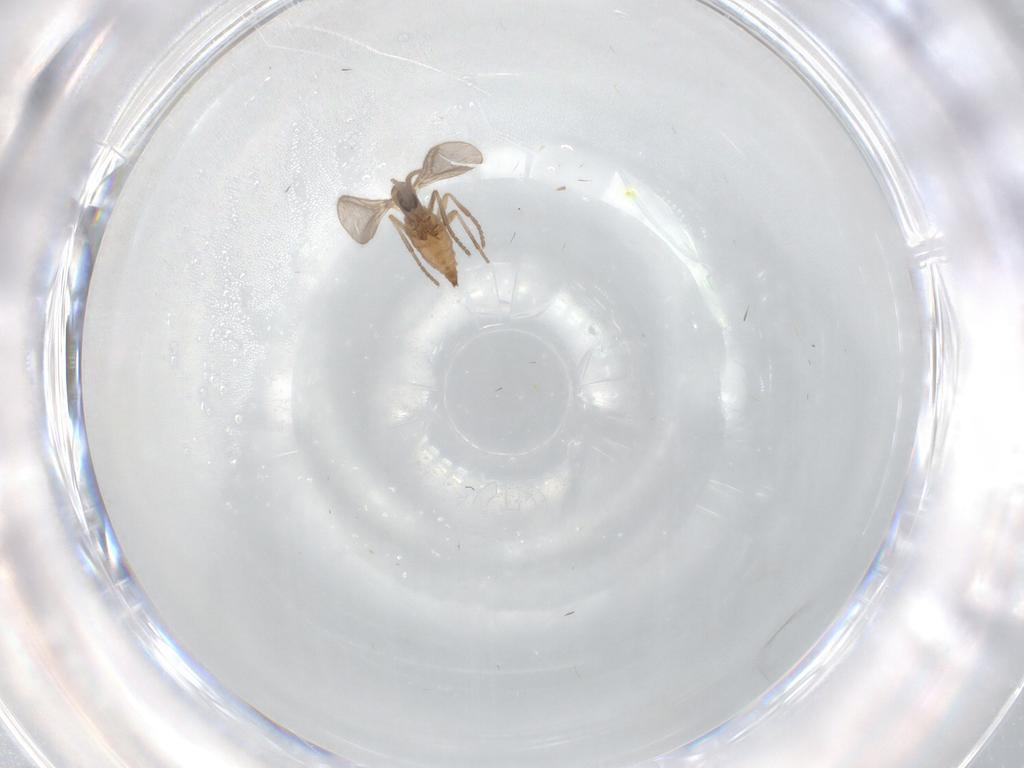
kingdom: Animalia
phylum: Arthropoda
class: Insecta
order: Diptera
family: Sciaridae
